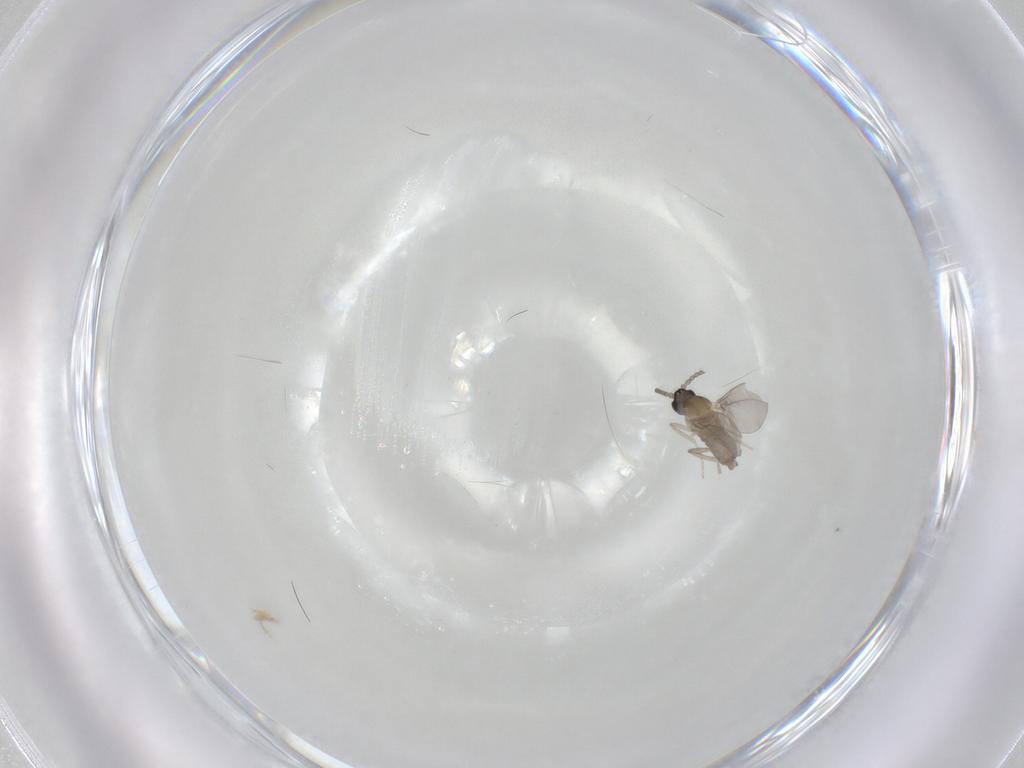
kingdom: Animalia
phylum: Arthropoda
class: Insecta
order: Diptera
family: Cecidomyiidae
